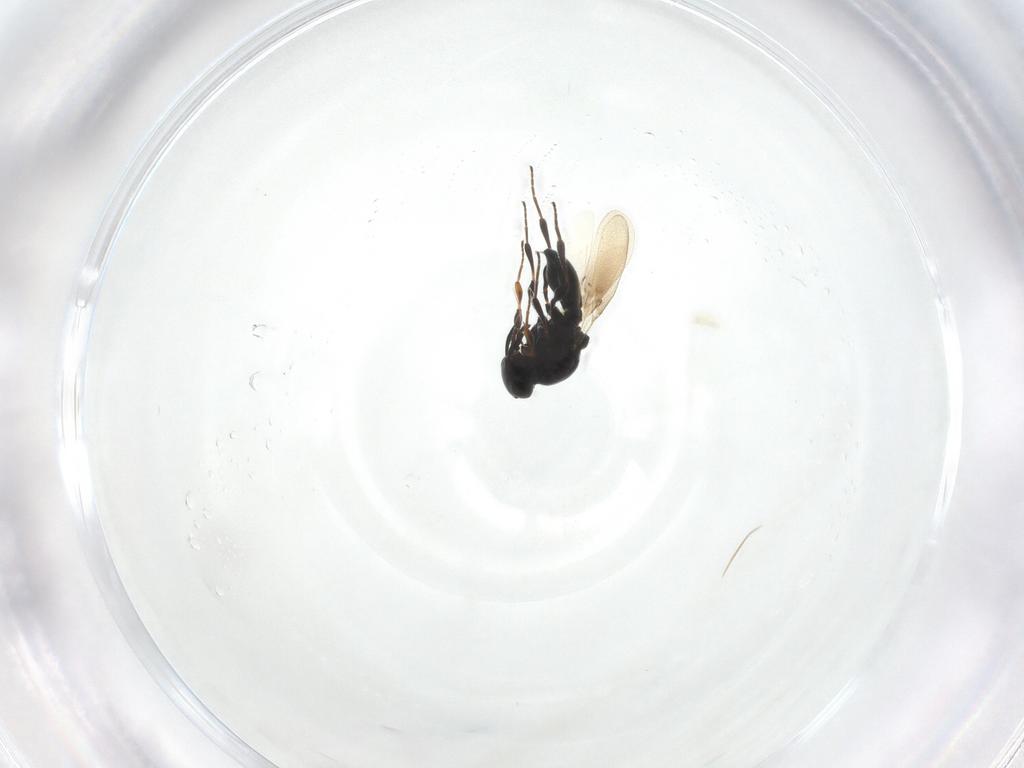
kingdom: Animalia
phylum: Arthropoda
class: Insecta
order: Hymenoptera
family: Platygastridae
